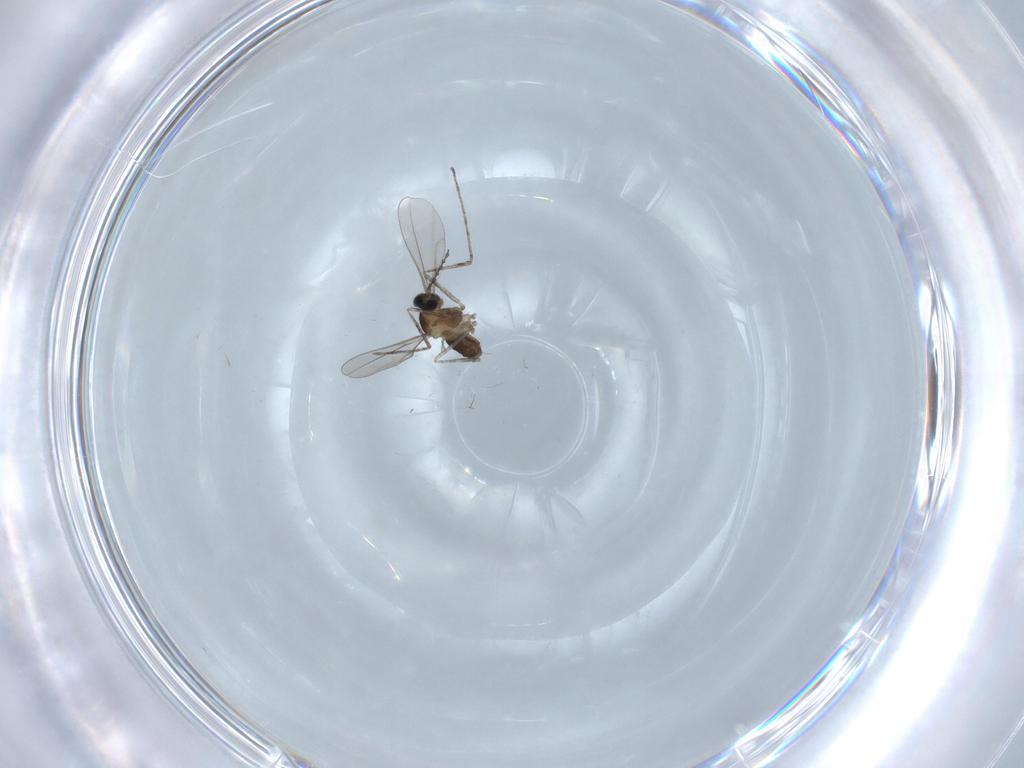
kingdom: Animalia
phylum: Arthropoda
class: Insecta
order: Diptera
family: Cecidomyiidae
